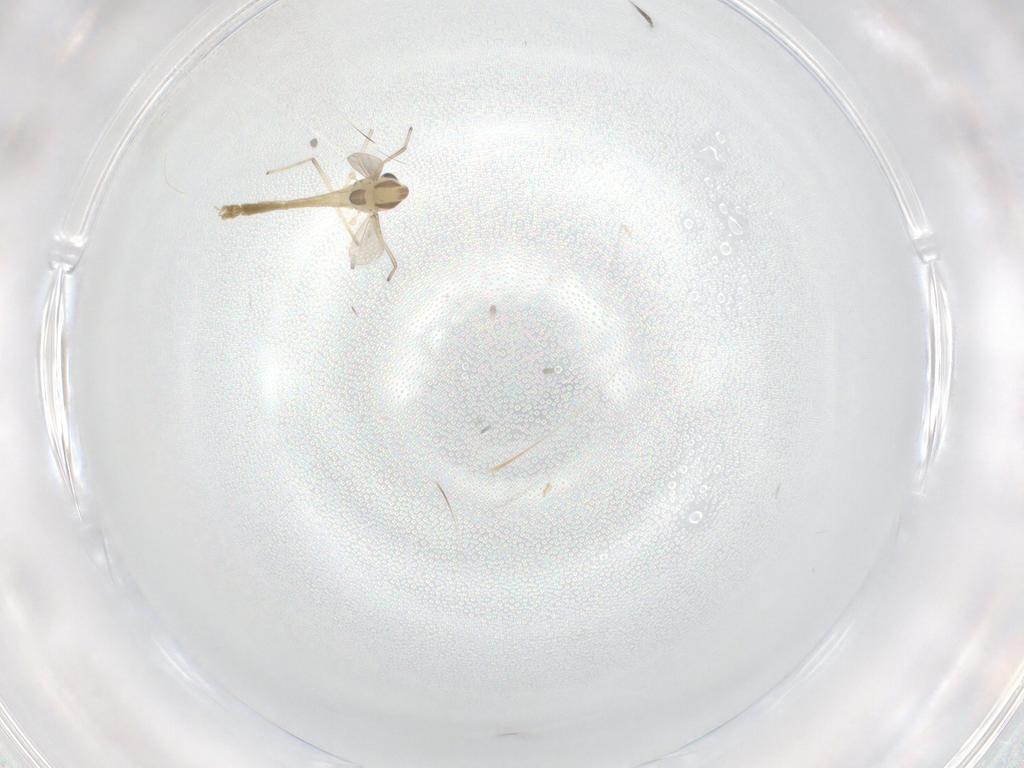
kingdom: Animalia
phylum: Arthropoda
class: Insecta
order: Diptera
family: Chironomidae
